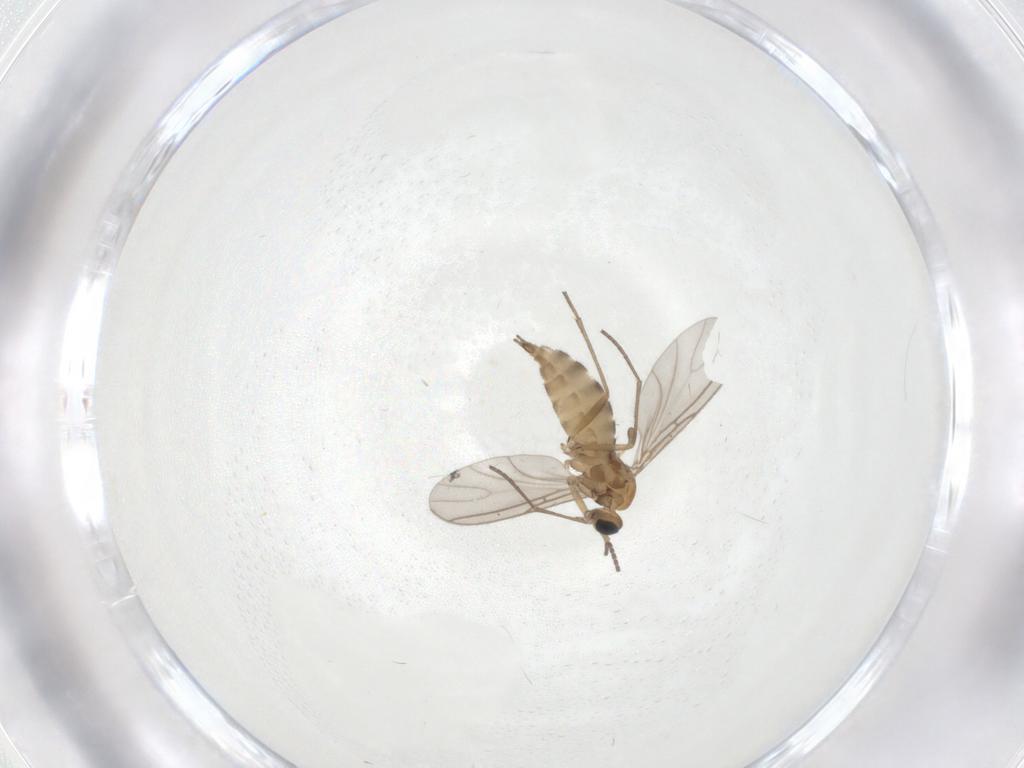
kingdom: Animalia
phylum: Arthropoda
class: Insecta
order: Diptera
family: Sciaridae
